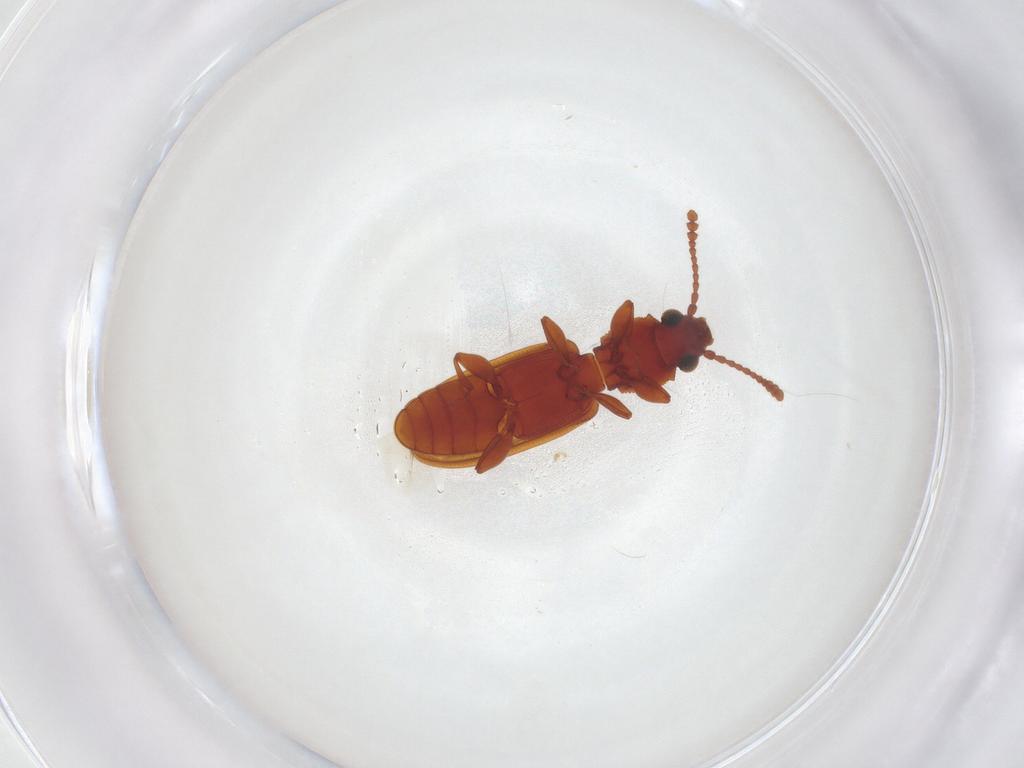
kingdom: Animalia
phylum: Arthropoda
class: Insecta
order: Coleoptera
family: Silvanidae
